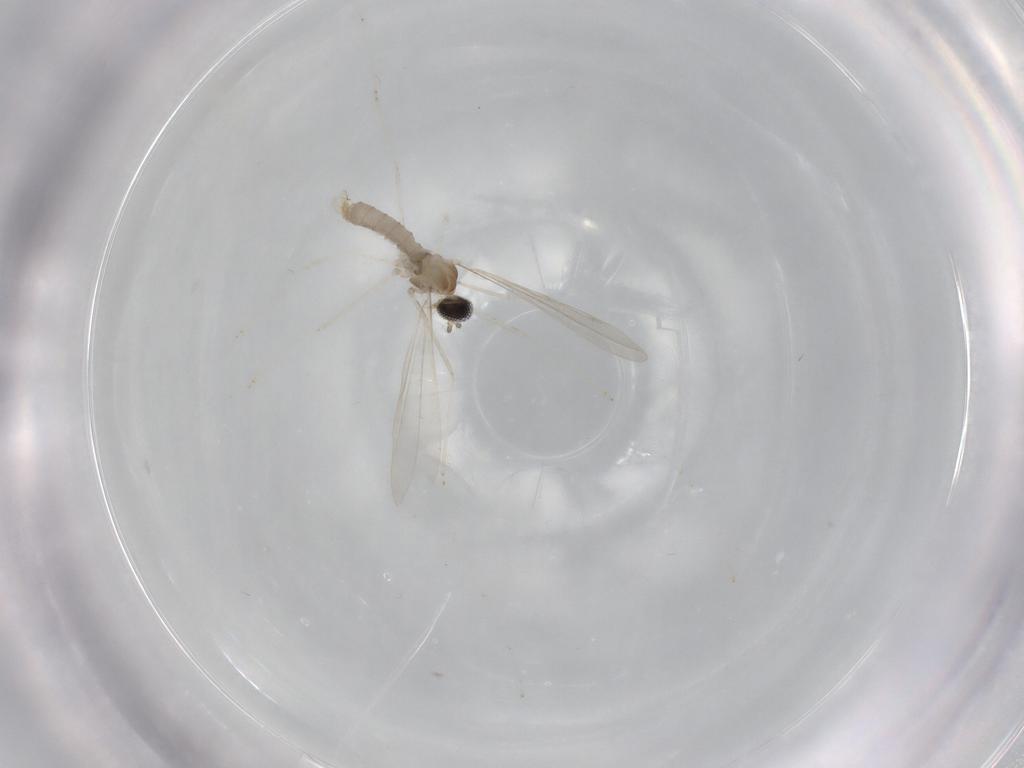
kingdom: Animalia
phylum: Arthropoda
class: Insecta
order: Diptera
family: Cecidomyiidae
